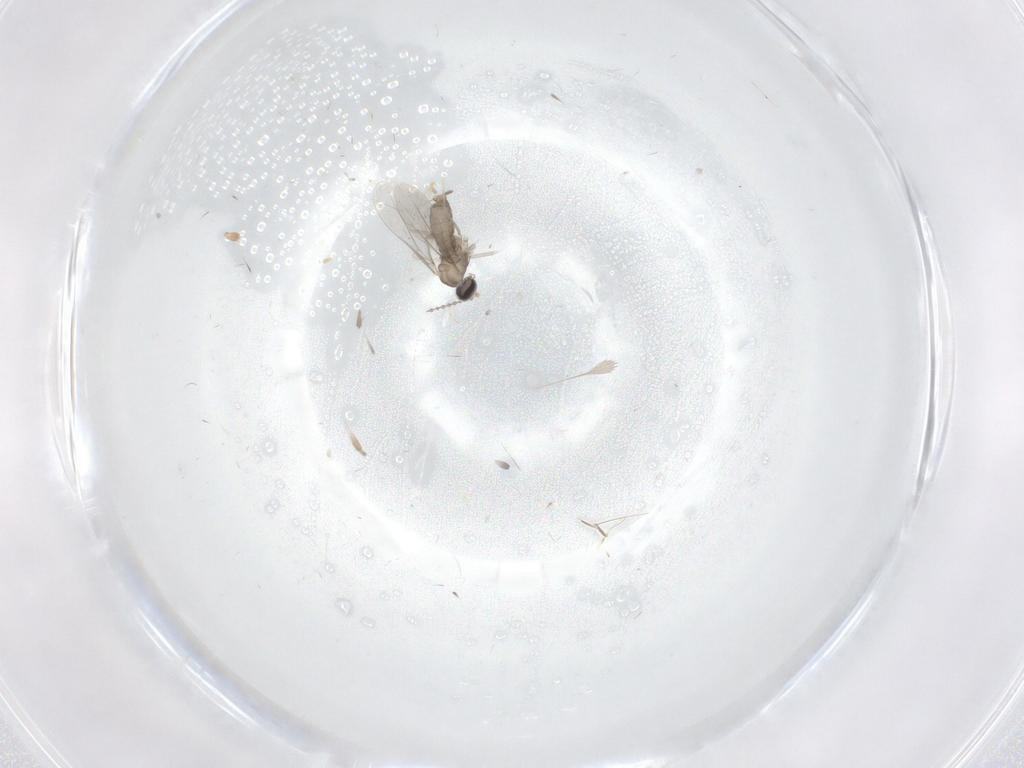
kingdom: Animalia
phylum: Arthropoda
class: Insecta
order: Diptera
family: Cecidomyiidae
